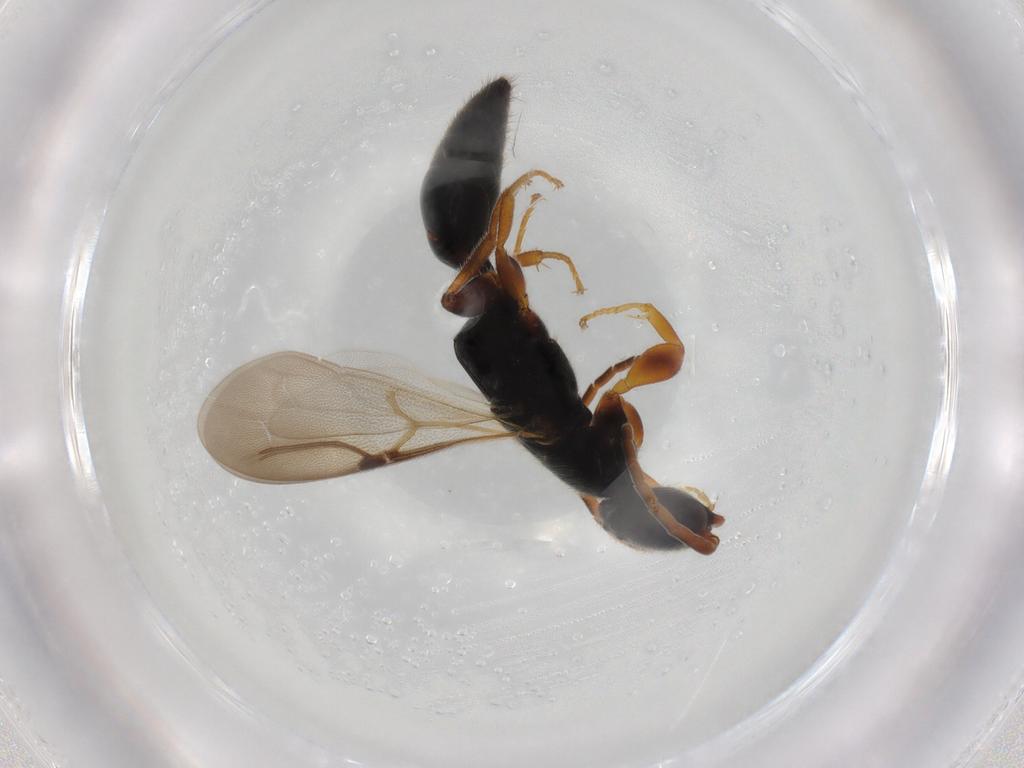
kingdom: Animalia
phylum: Arthropoda
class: Insecta
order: Hymenoptera
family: Bethylidae
